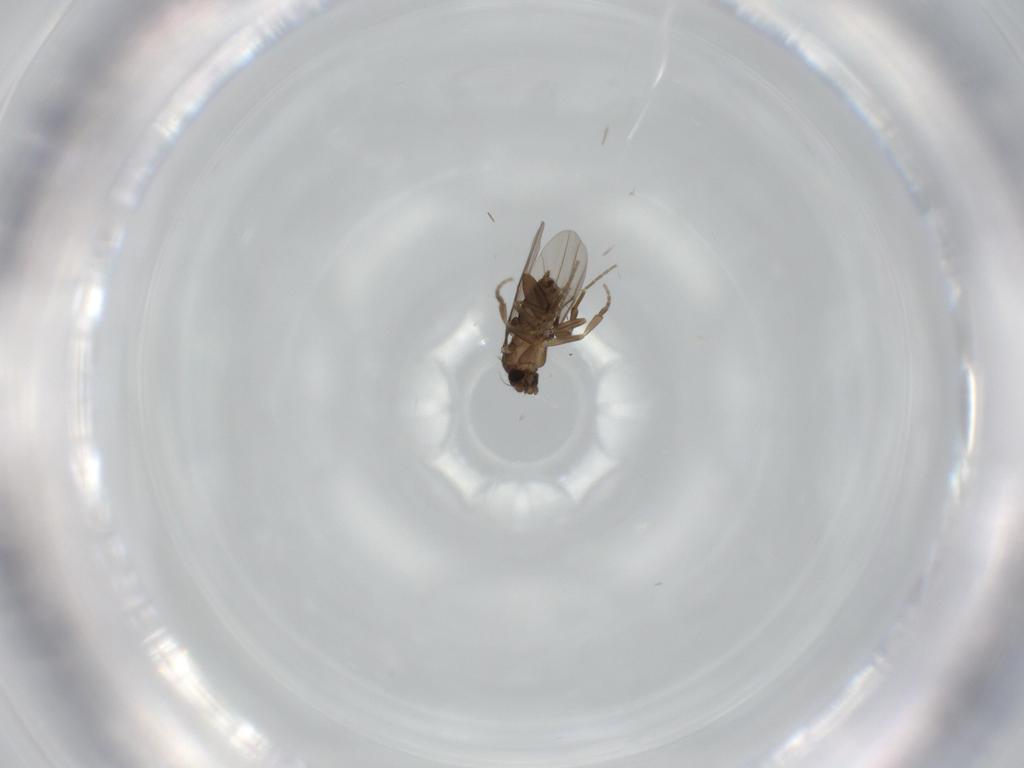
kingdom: Animalia
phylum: Arthropoda
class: Insecta
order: Diptera
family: Phoridae
